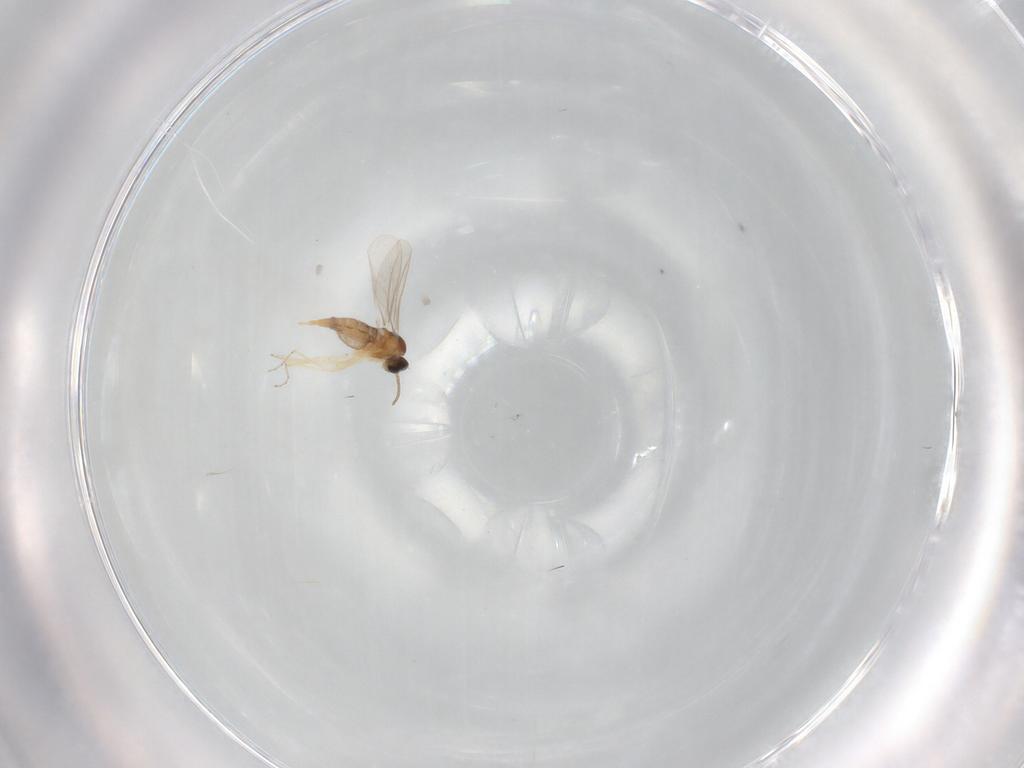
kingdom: Animalia
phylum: Arthropoda
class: Insecta
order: Diptera
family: Cecidomyiidae
